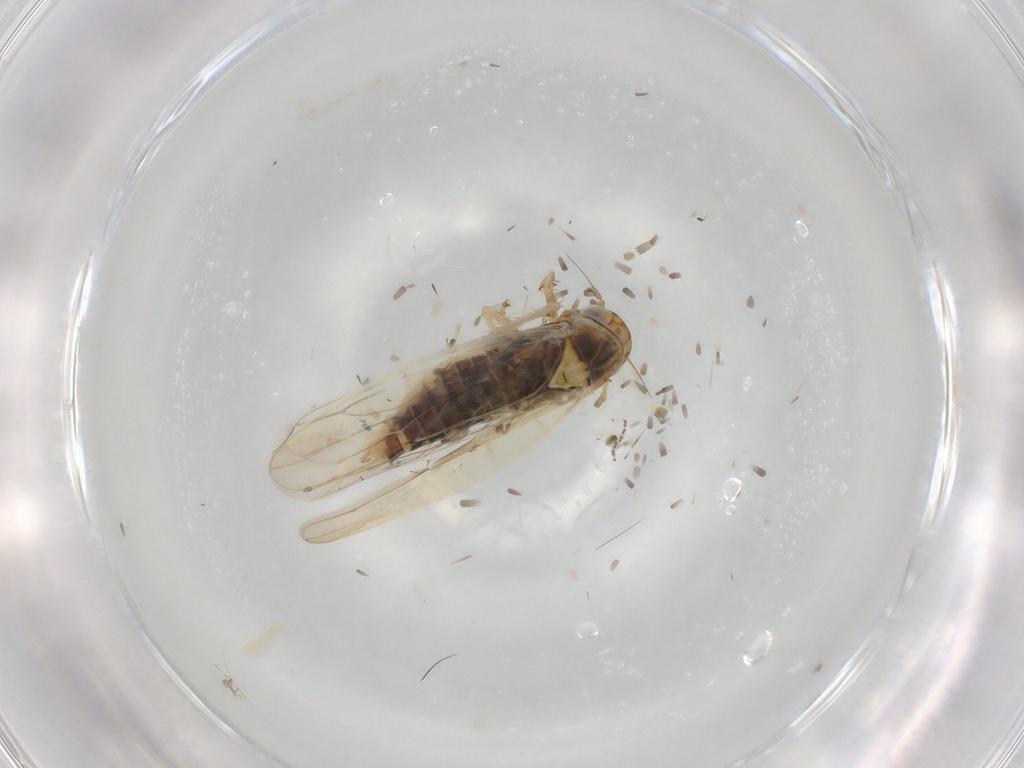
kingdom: Animalia
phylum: Arthropoda
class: Insecta
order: Hemiptera
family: Cicadellidae
